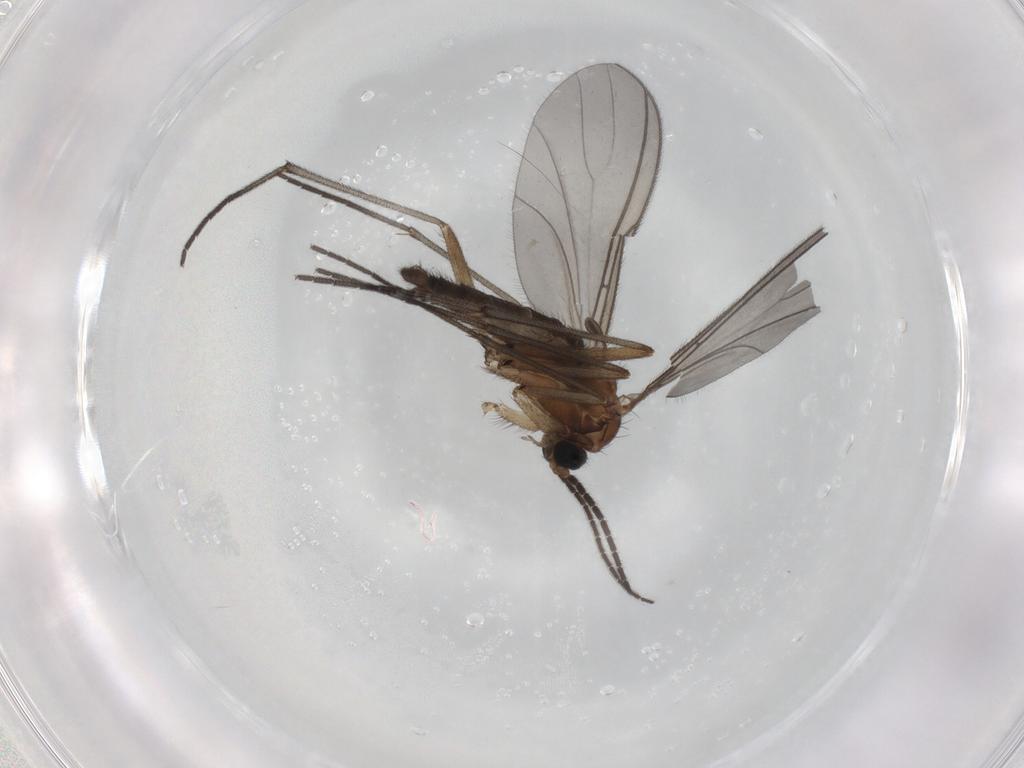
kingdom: Animalia
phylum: Arthropoda
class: Insecta
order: Diptera
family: Sciaridae
